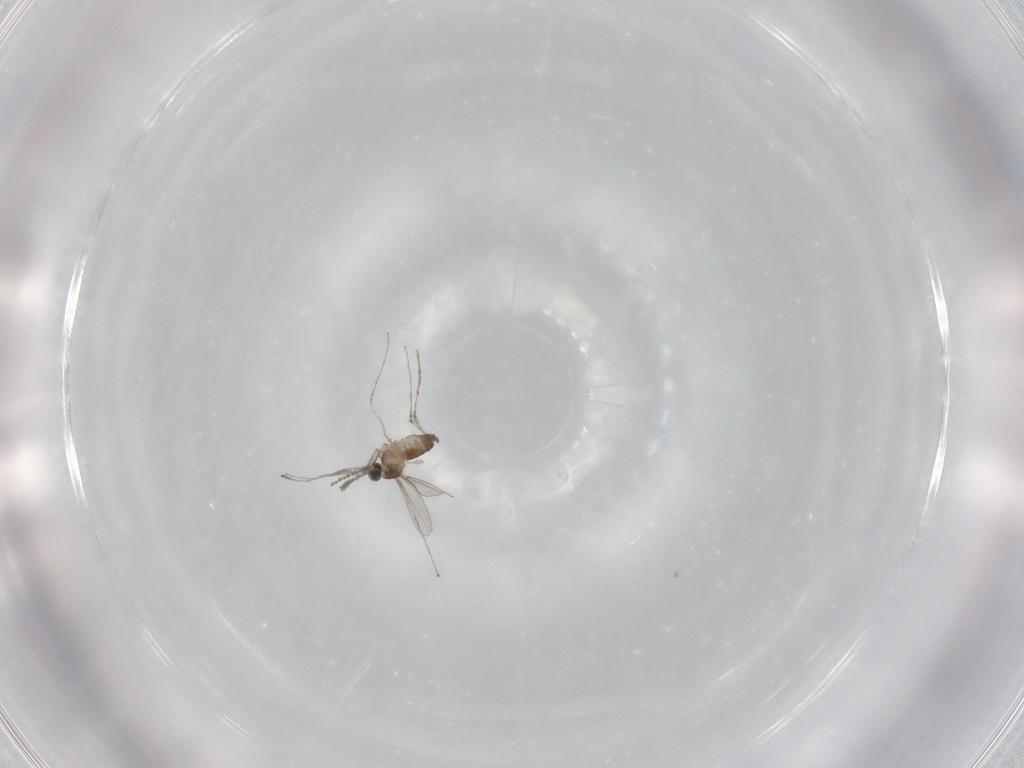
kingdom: Animalia
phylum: Arthropoda
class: Insecta
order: Diptera
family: Cecidomyiidae
